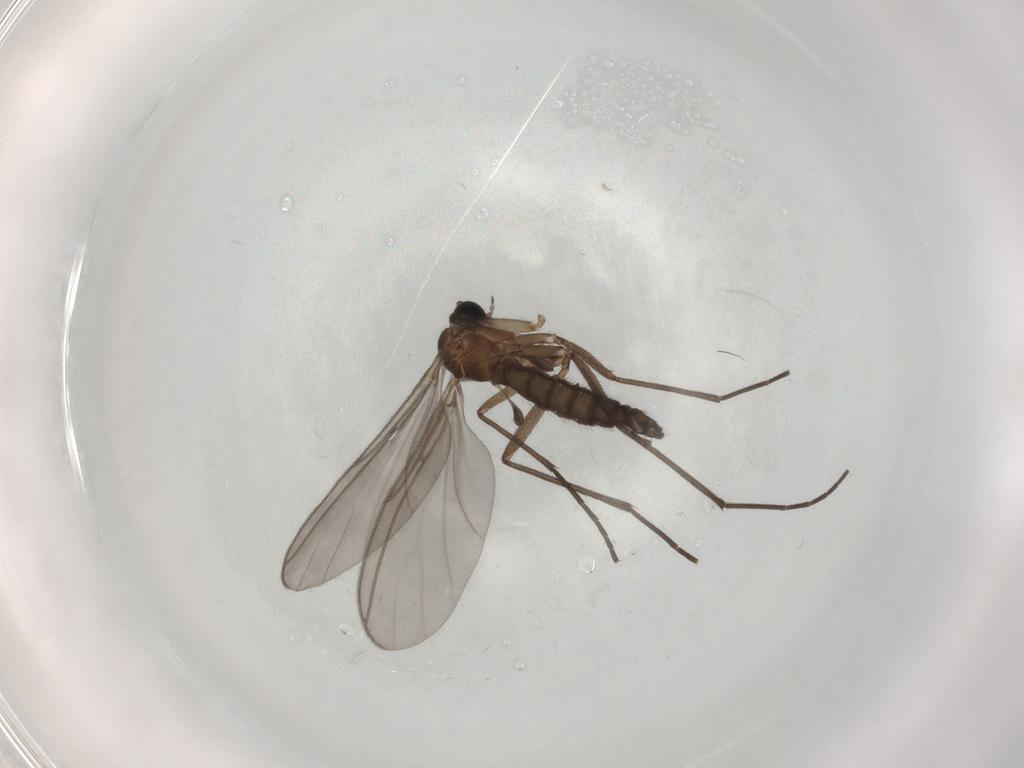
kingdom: Animalia
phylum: Arthropoda
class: Insecta
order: Diptera
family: Sciaridae
